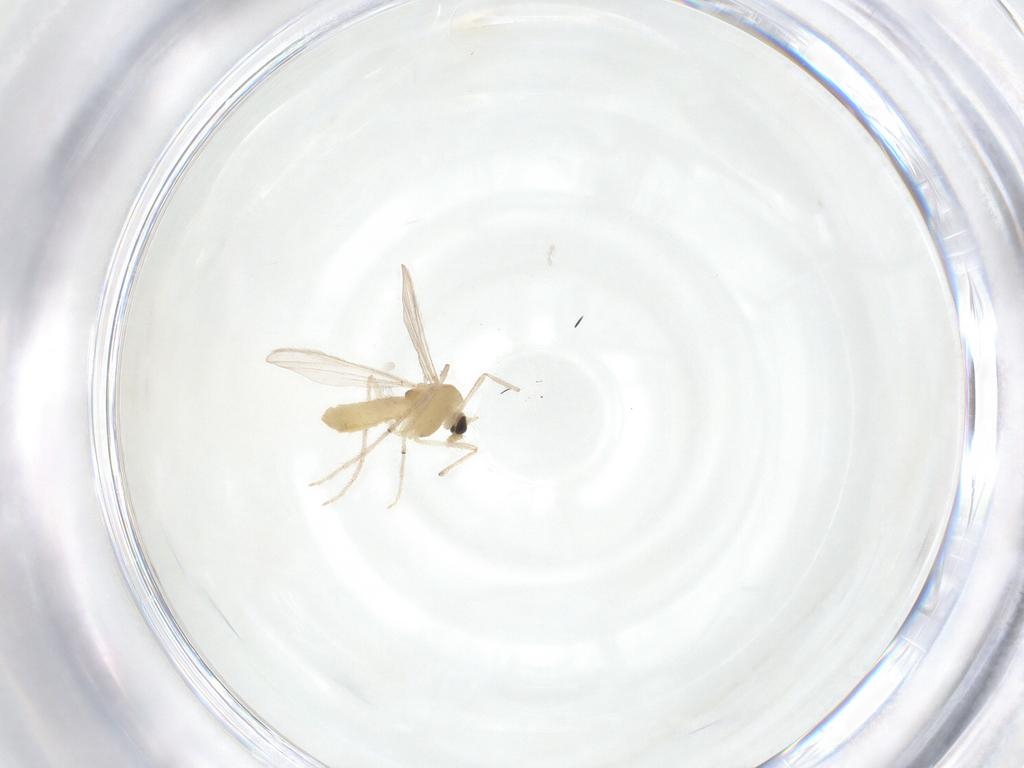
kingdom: Animalia
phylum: Arthropoda
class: Insecta
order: Diptera
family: Chironomidae
